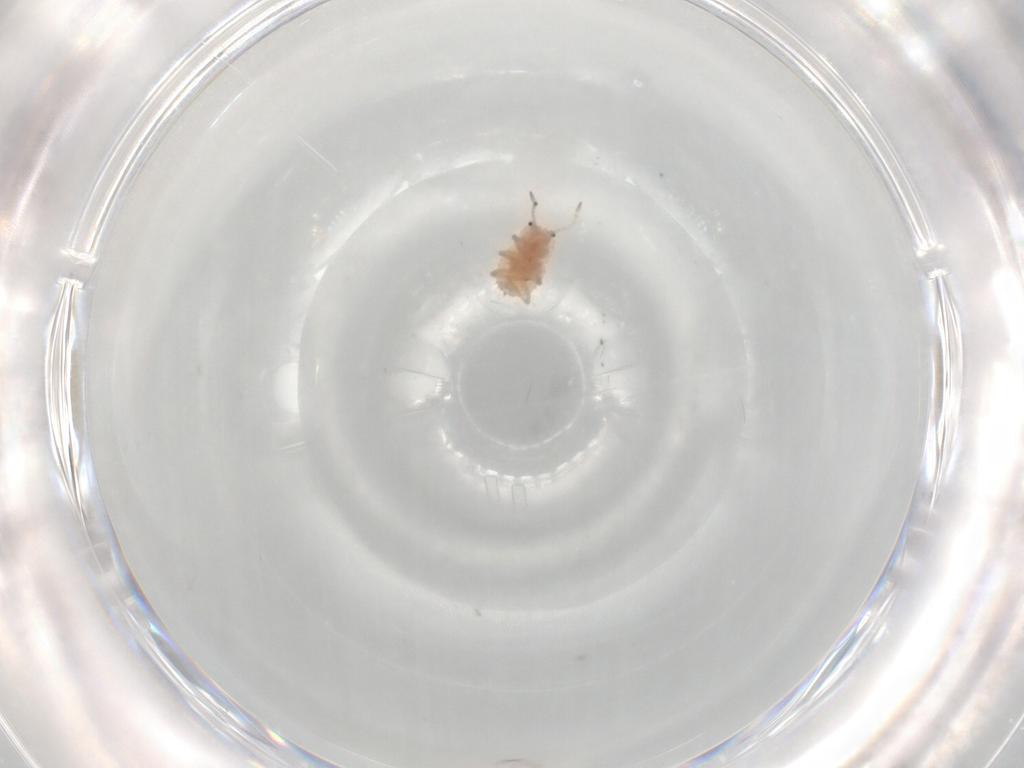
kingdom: Animalia
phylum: Arthropoda
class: Insecta
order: Hemiptera
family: Coccoidea_incertae_sedis
